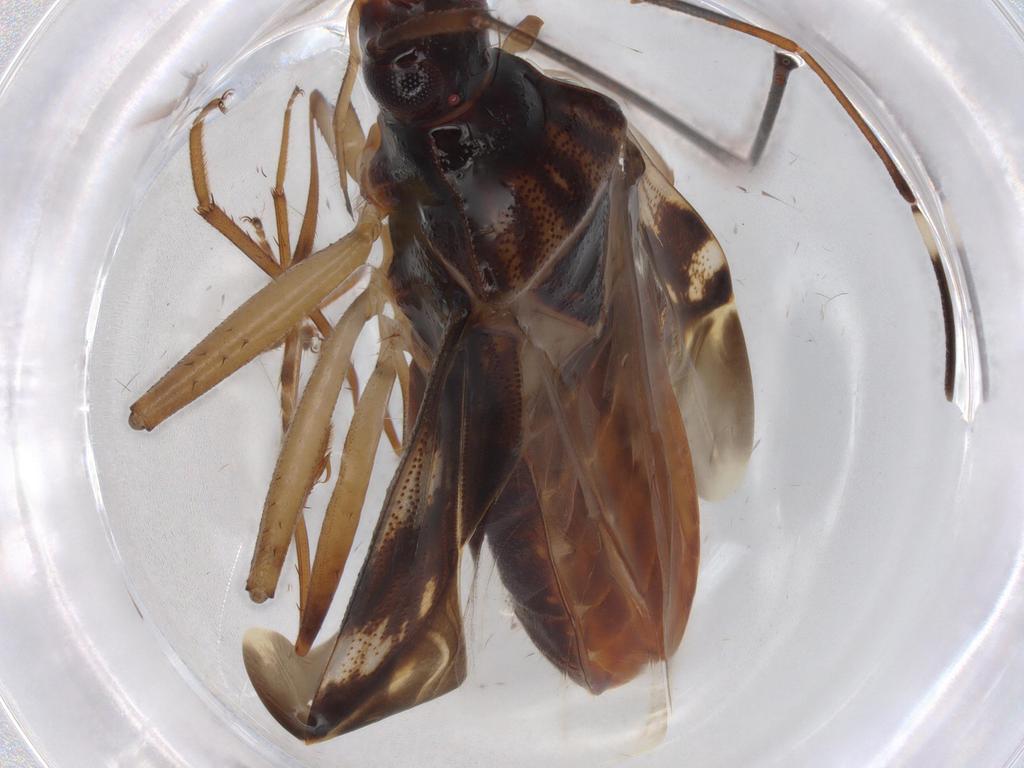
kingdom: Animalia
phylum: Arthropoda
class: Insecta
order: Hemiptera
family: Rhyparochromidae
